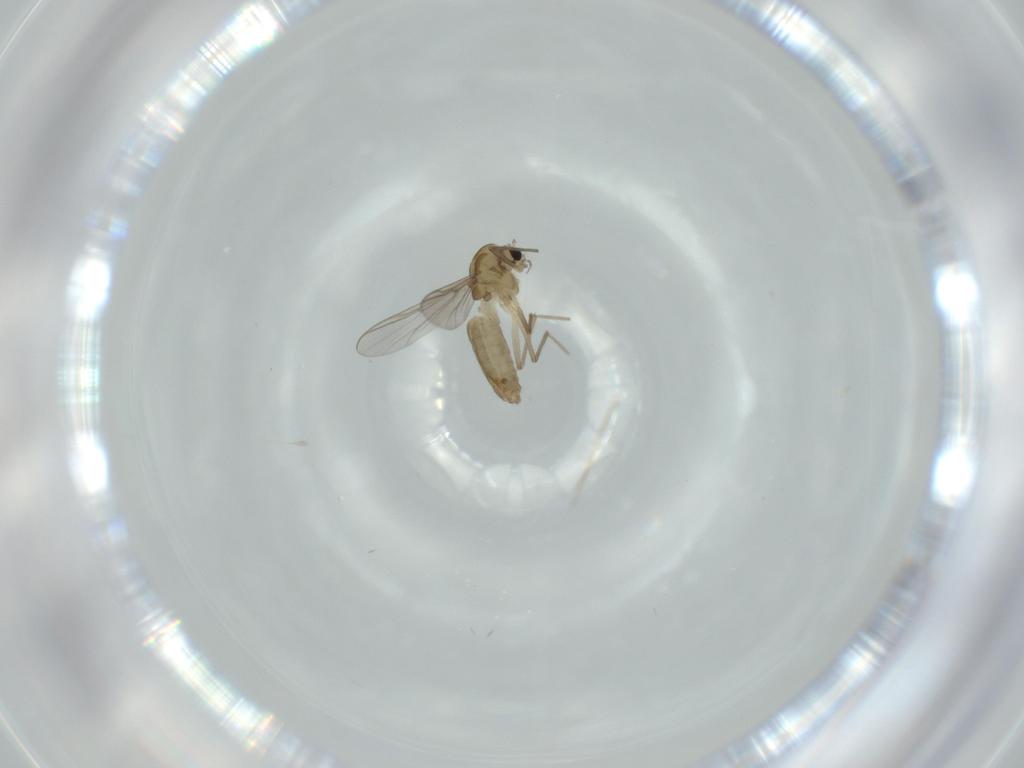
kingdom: Animalia
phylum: Arthropoda
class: Insecta
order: Diptera
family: Chironomidae
